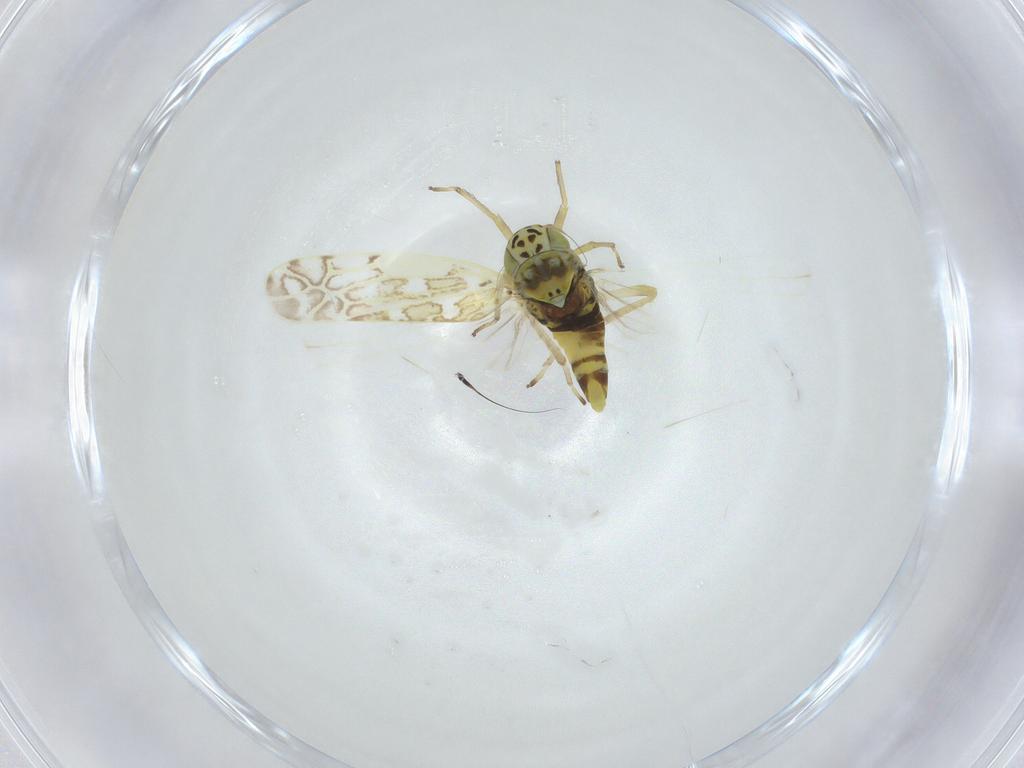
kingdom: Animalia
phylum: Arthropoda
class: Insecta
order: Diptera
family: Muscidae
